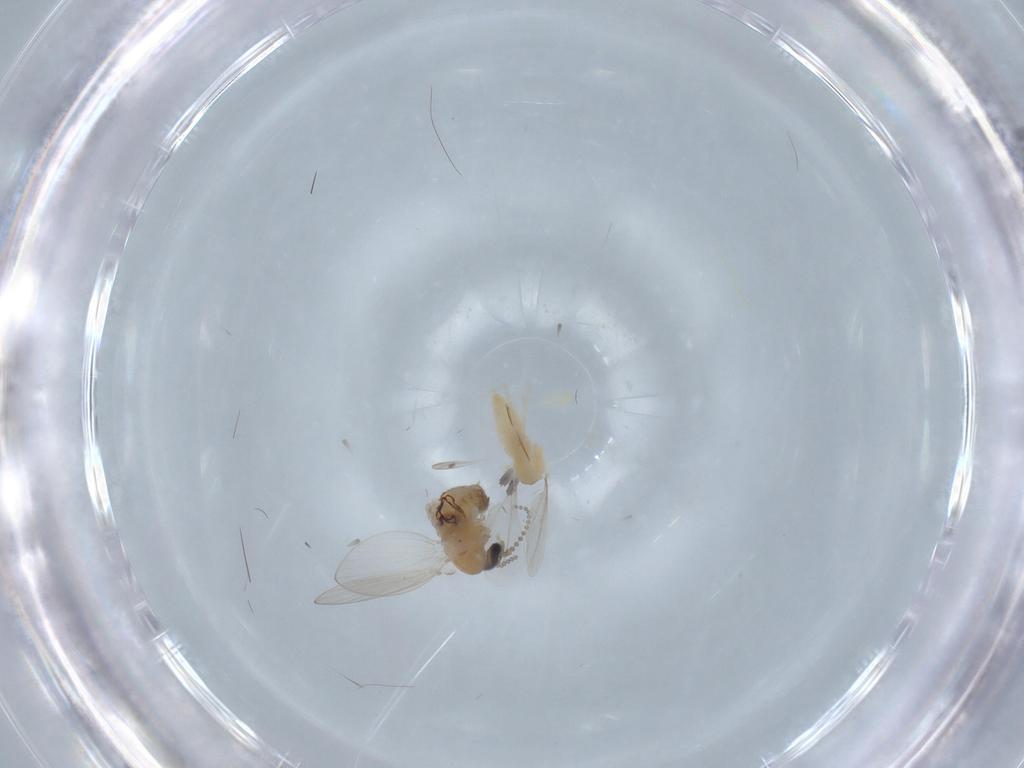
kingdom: Animalia
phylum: Arthropoda
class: Insecta
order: Diptera
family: Psychodidae
